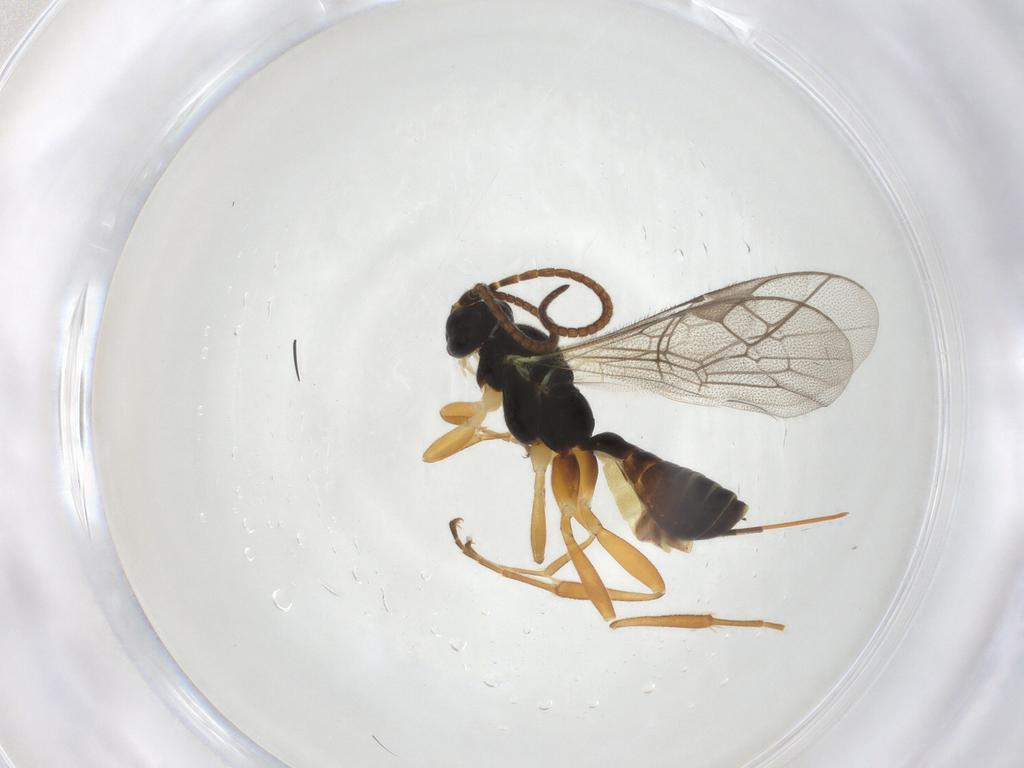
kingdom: Animalia
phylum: Arthropoda
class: Insecta
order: Hymenoptera
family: Ichneumonidae
